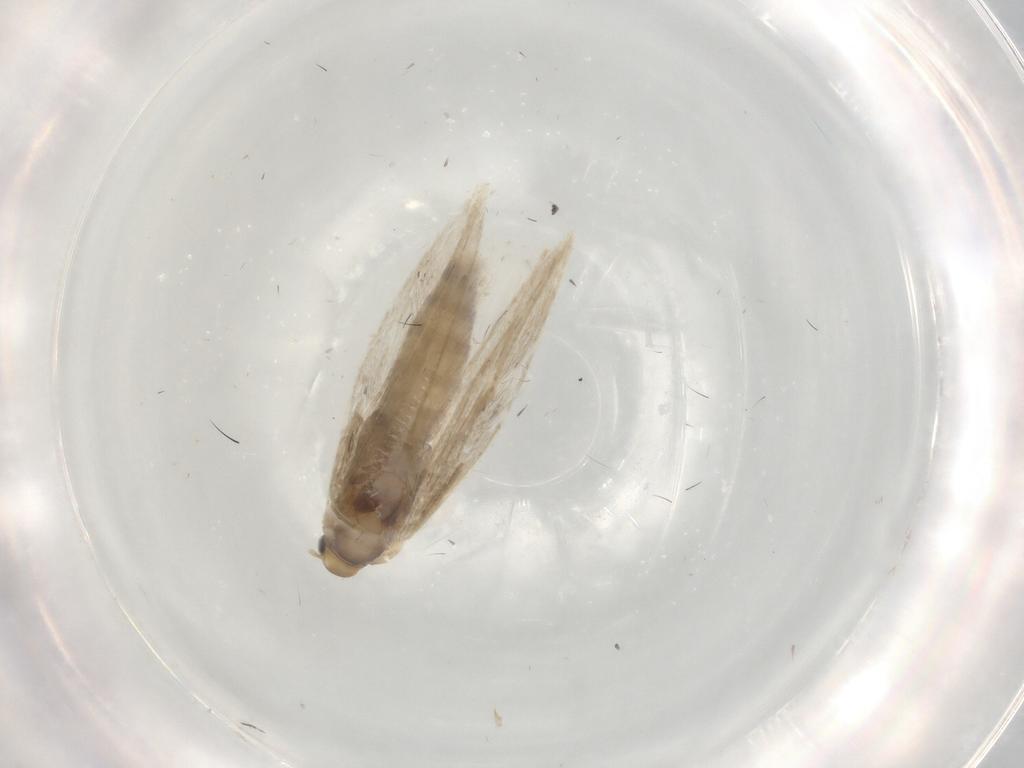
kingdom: Animalia
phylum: Arthropoda
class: Insecta
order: Lepidoptera
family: Gracillariidae
